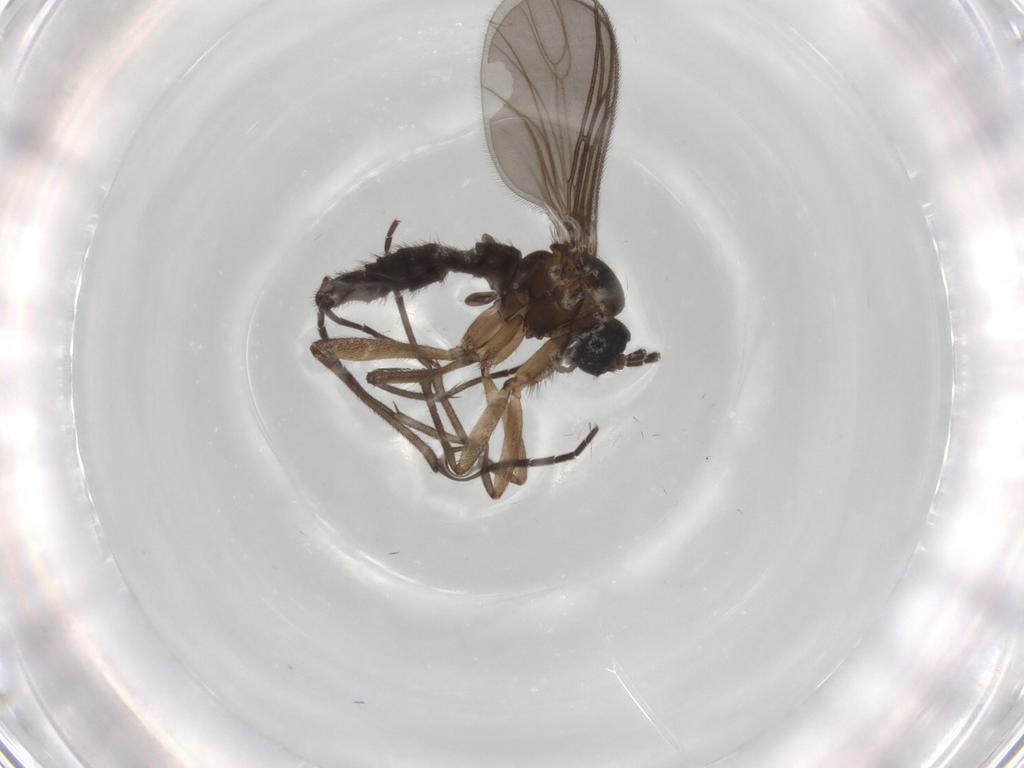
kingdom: Animalia
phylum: Arthropoda
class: Insecta
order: Diptera
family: Sciaridae
